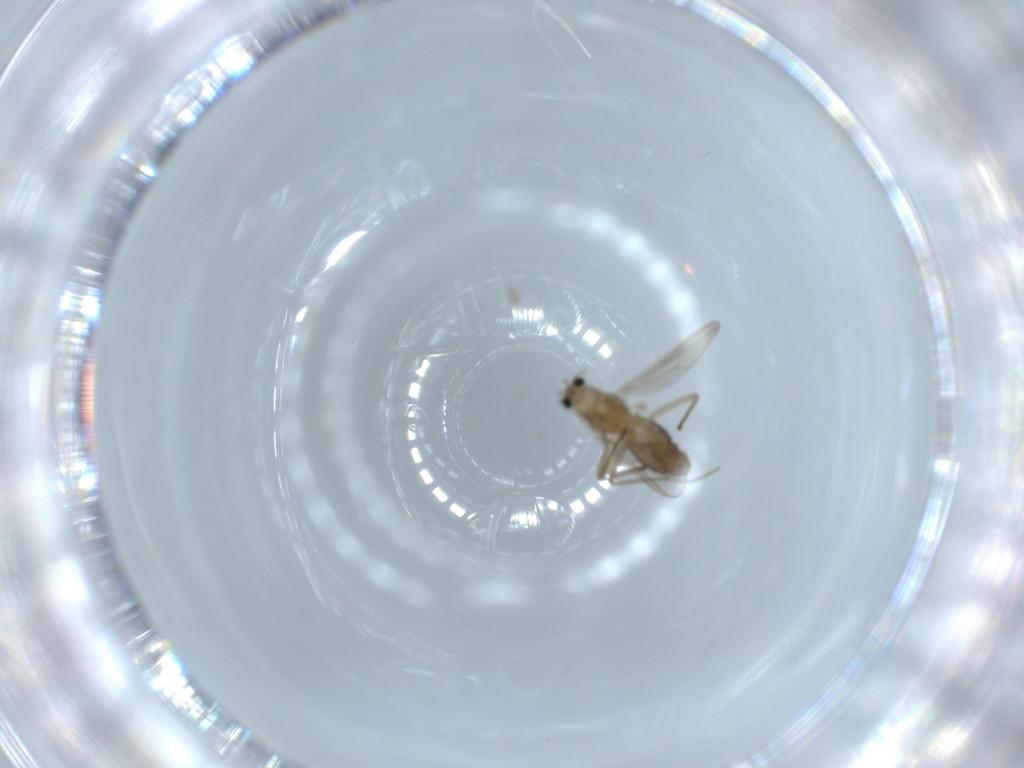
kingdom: Animalia
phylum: Arthropoda
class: Insecta
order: Diptera
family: Chironomidae
